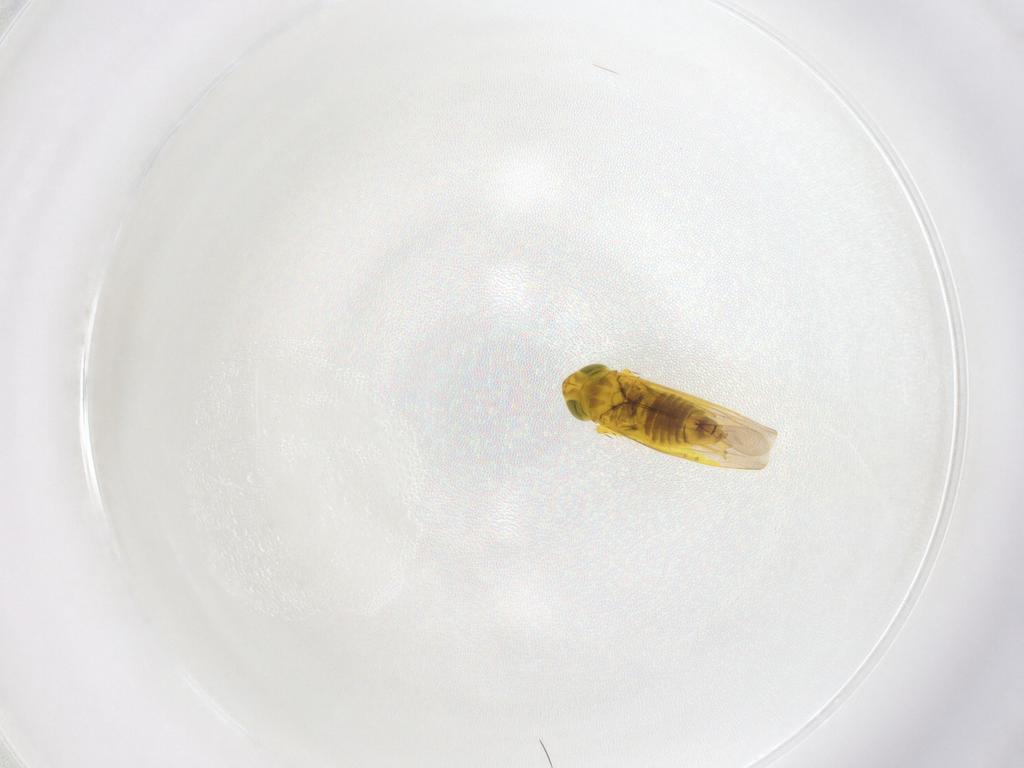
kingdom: Animalia
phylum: Arthropoda
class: Insecta
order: Hemiptera
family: Cicadellidae
